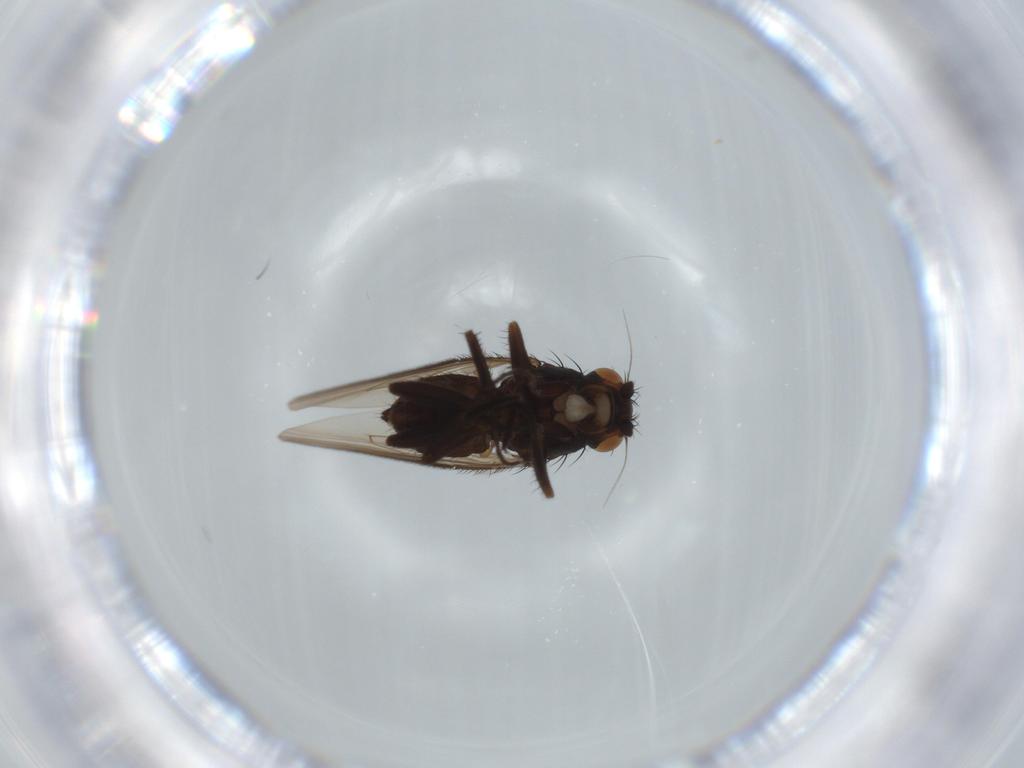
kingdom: Animalia
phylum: Arthropoda
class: Insecta
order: Diptera
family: Sphaeroceridae
